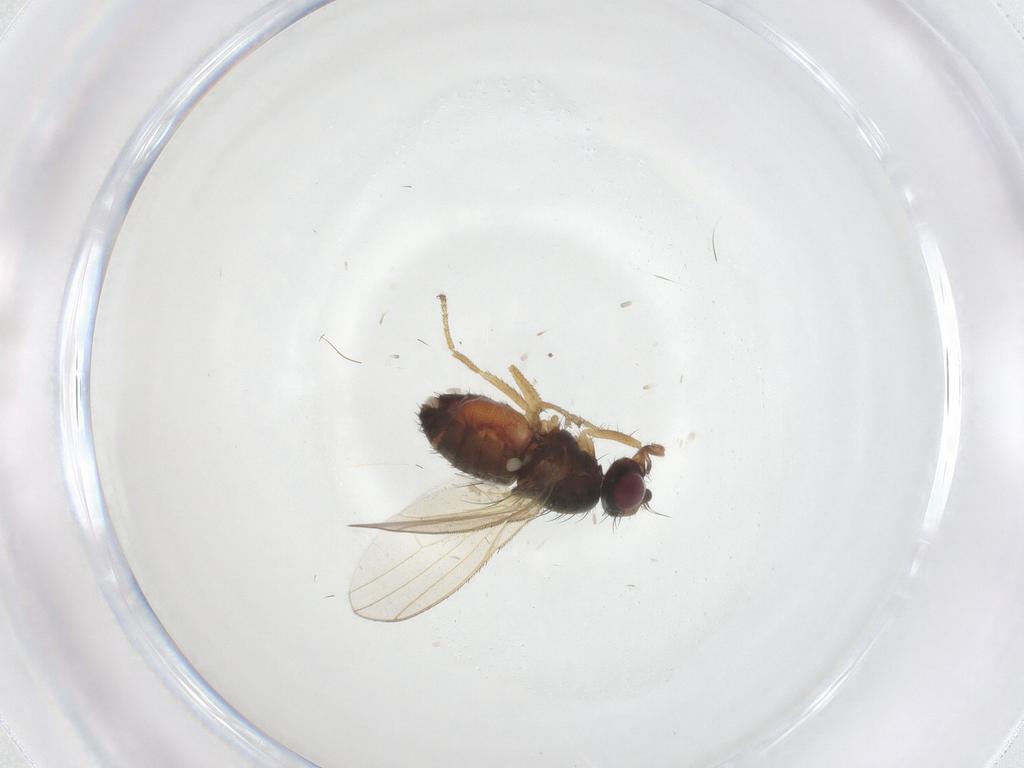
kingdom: Animalia
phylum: Arthropoda
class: Insecta
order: Diptera
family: Heleomyzidae
